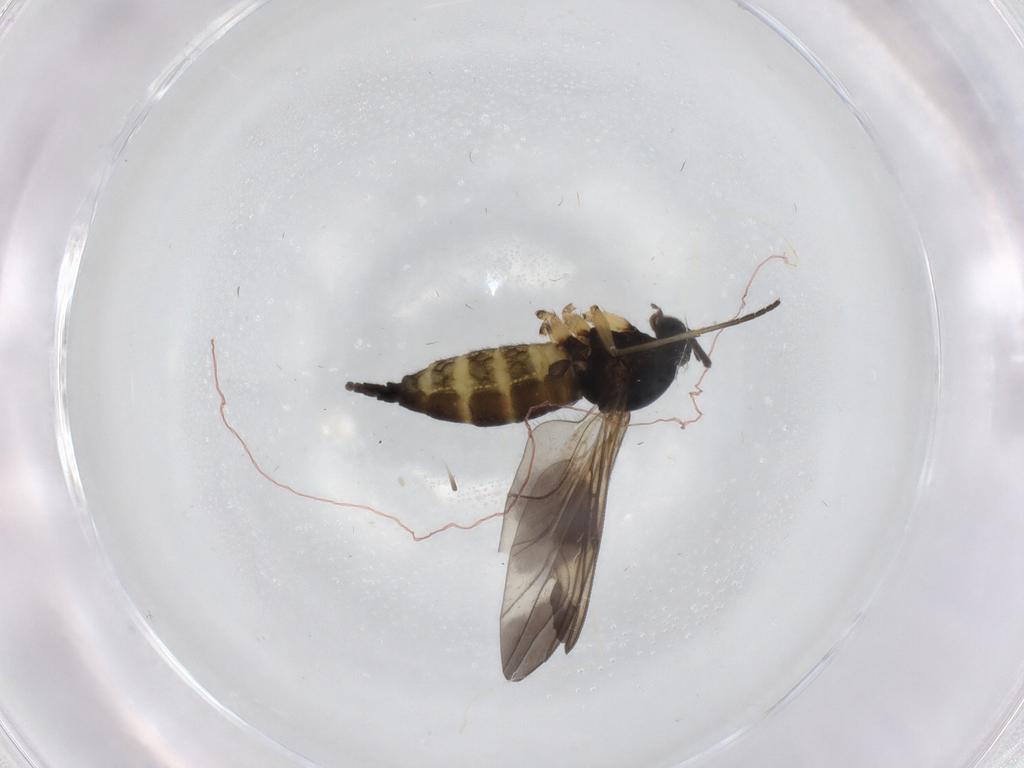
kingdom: Animalia
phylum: Arthropoda
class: Insecta
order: Diptera
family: Sciaridae
